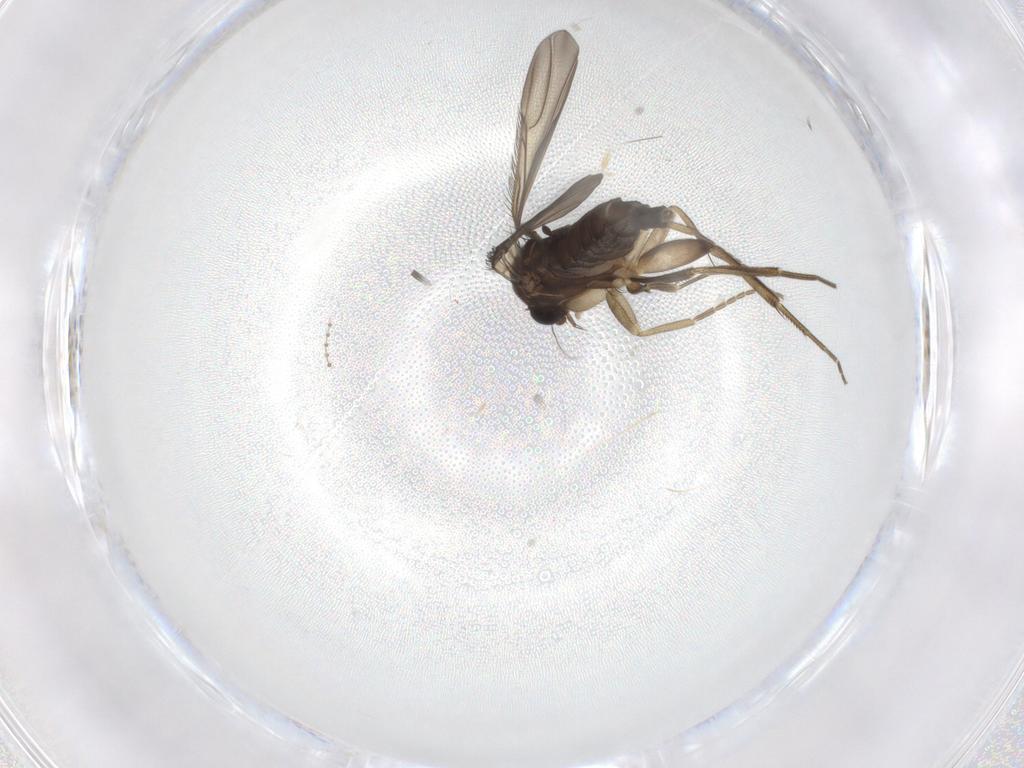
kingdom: Animalia
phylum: Arthropoda
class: Insecta
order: Diptera
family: Phoridae
